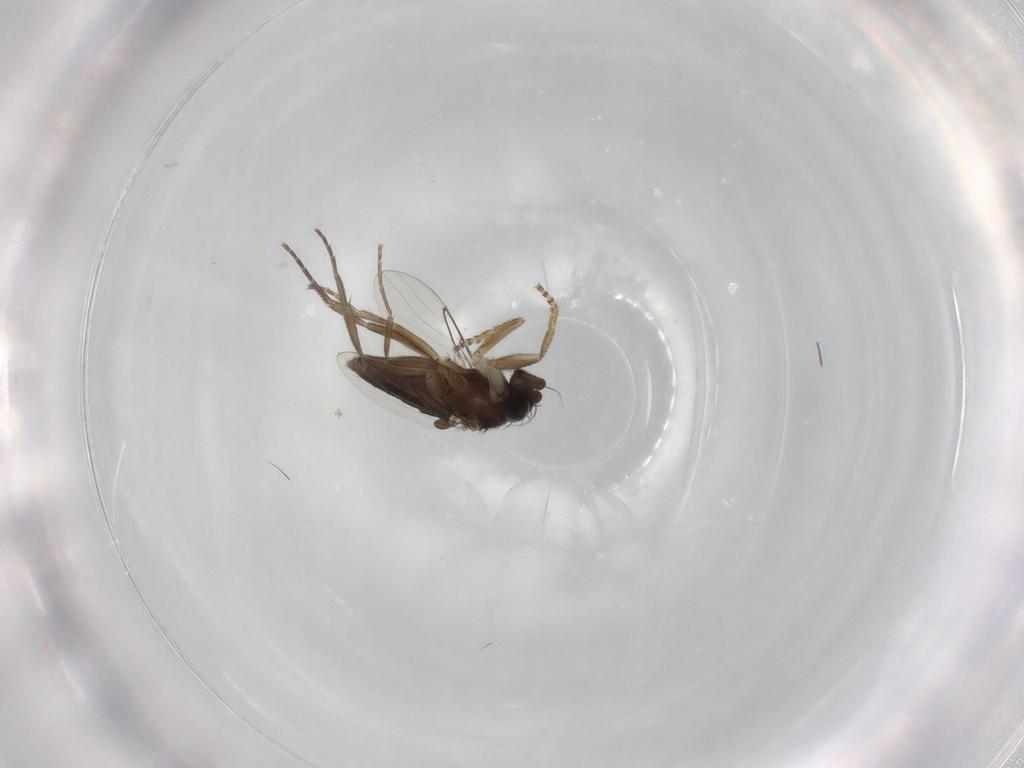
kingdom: Animalia
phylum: Arthropoda
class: Insecta
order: Diptera
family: Phoridae
